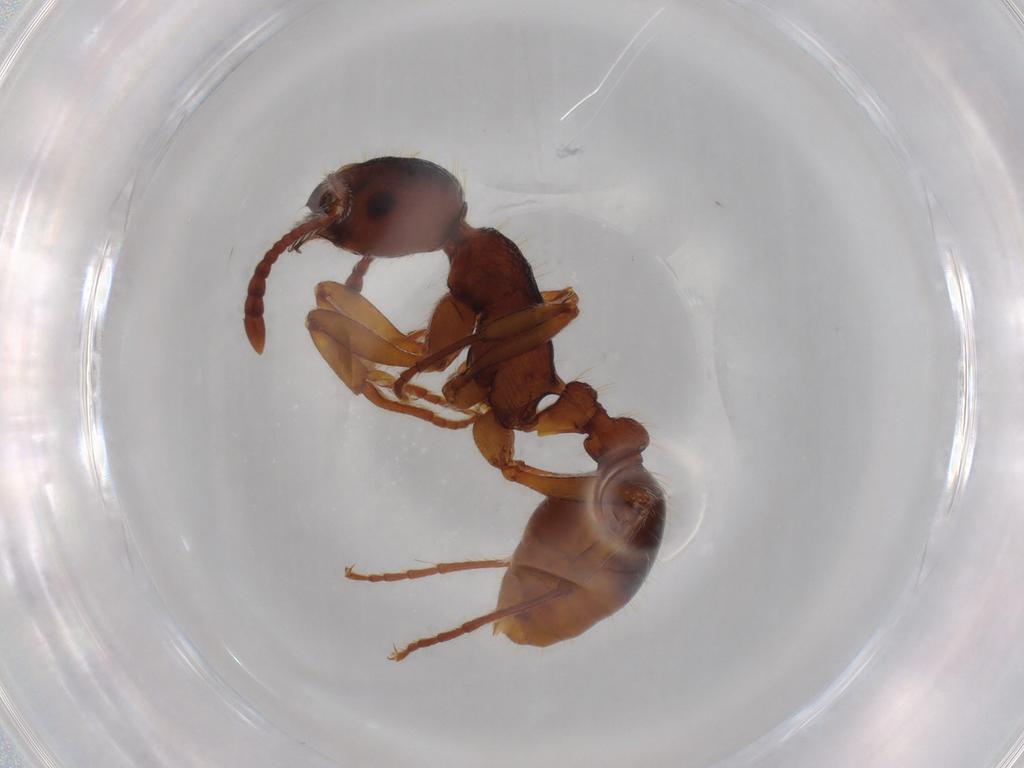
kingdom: Animalia
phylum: Arthropoda
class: Insecta
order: Hymenoptera
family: Formicidae
